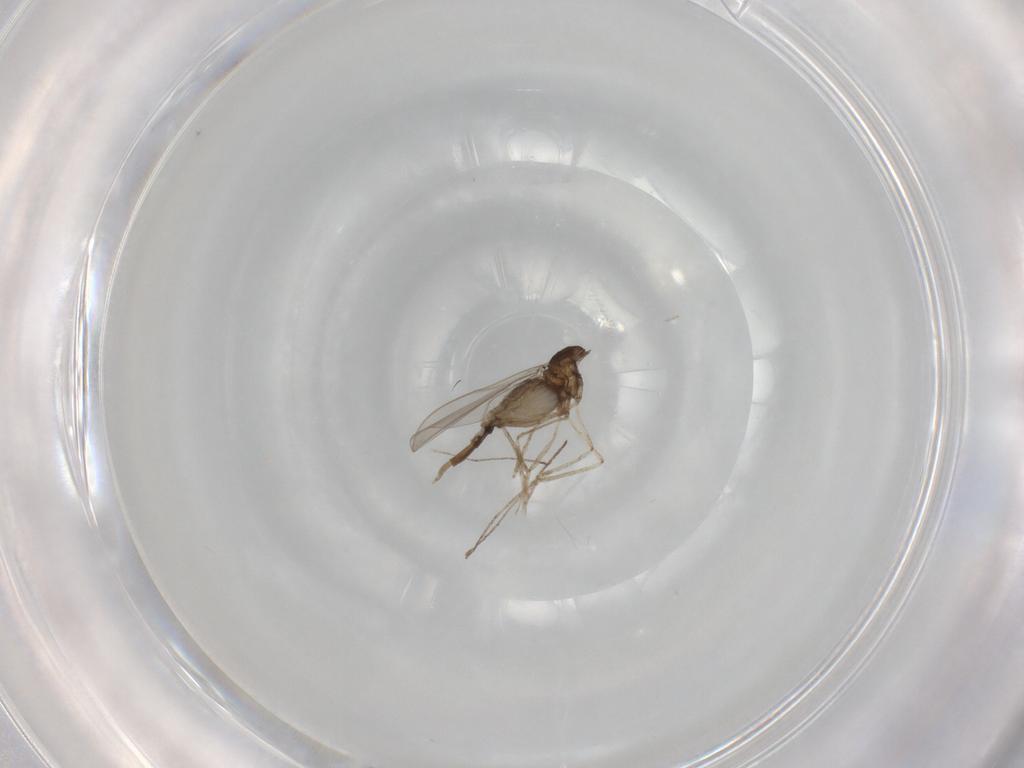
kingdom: Animalia
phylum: Arthropoda
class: Insecta
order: Diptera
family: Cecidomyiidae
